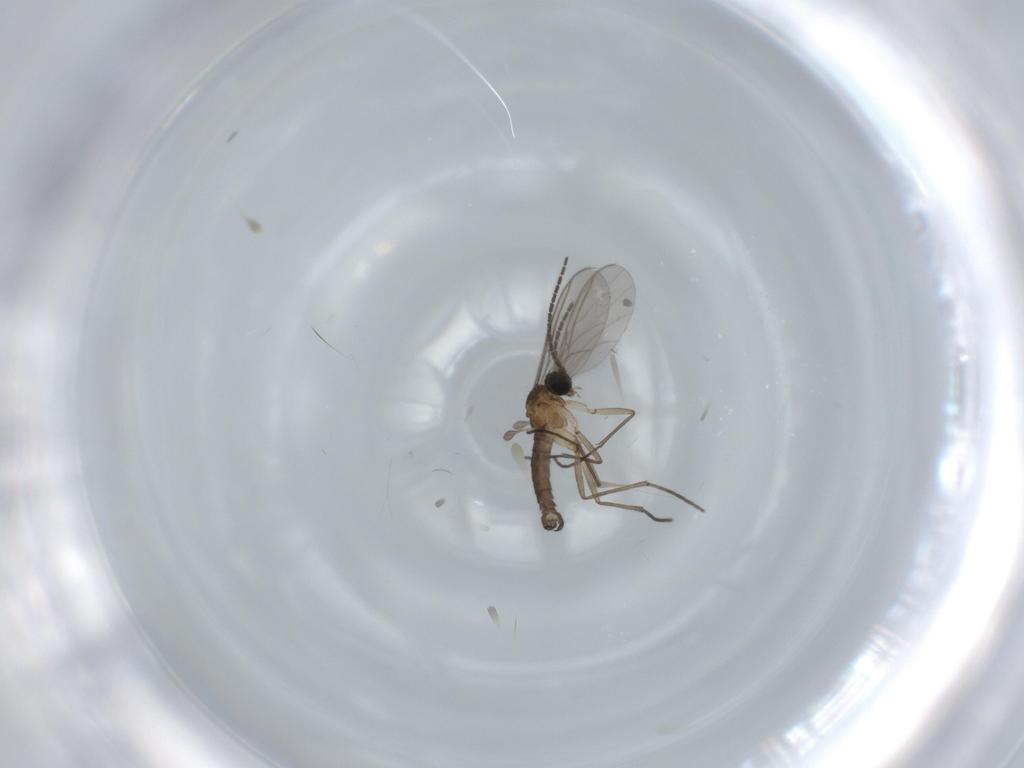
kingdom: Animalia
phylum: Arthropoda
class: Insecta
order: Diptera
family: Sciaridae
